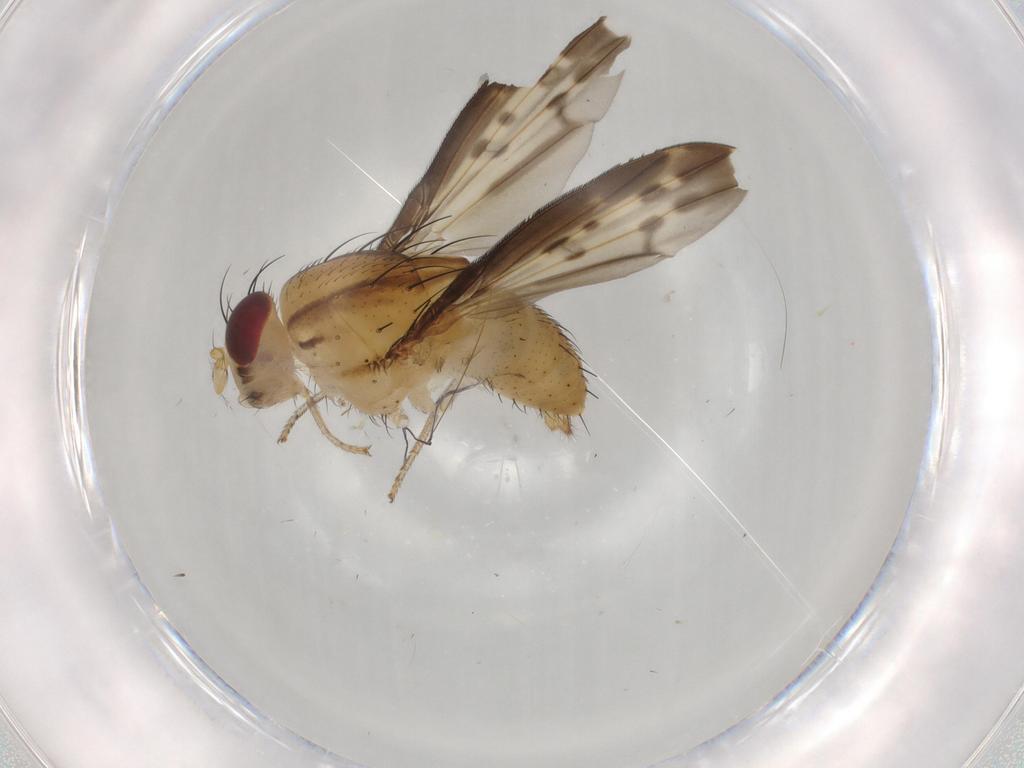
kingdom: Animalia
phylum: Arthropoda
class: Insecta
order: Diptera
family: Lauxaniidae
